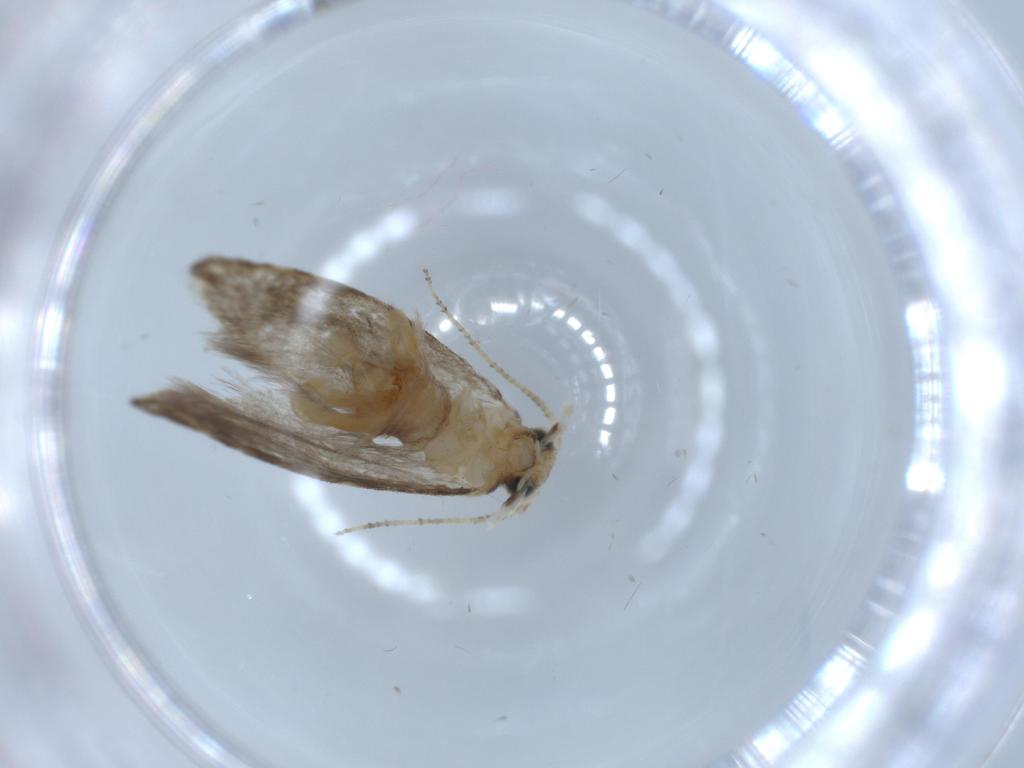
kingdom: Animalia
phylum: Arthropoda
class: Insecta
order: Lepidoptera
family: Tineidae
